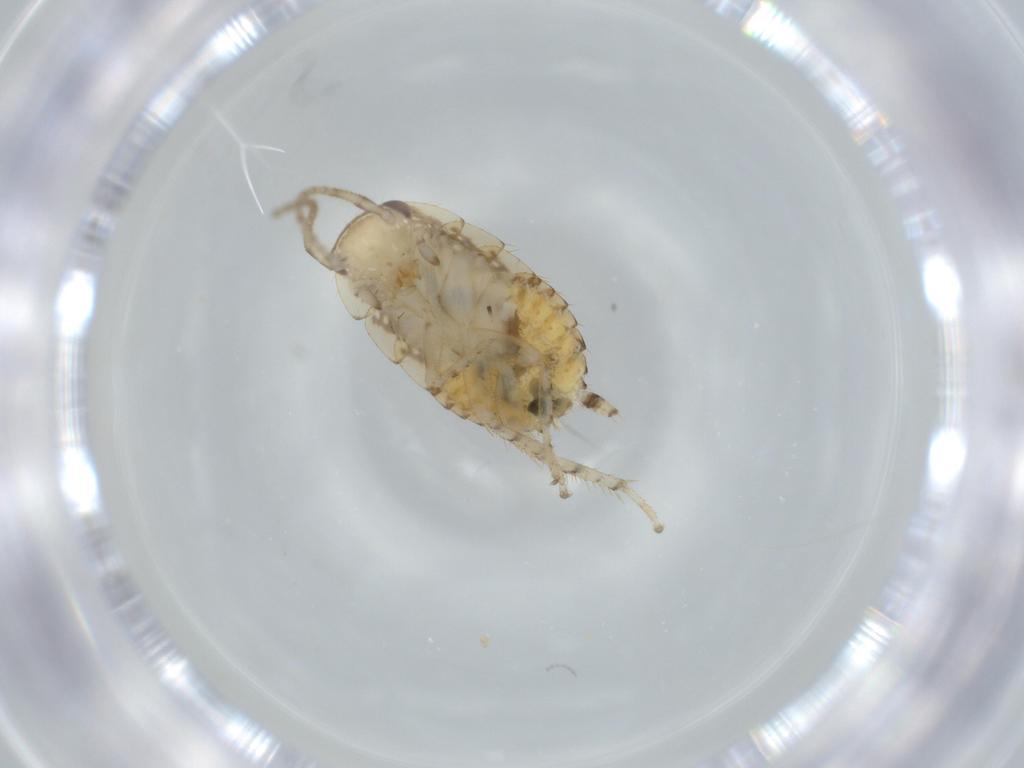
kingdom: Animalia
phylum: Arthropoda
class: Insecta
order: Blattodea
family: Ectobiidae
